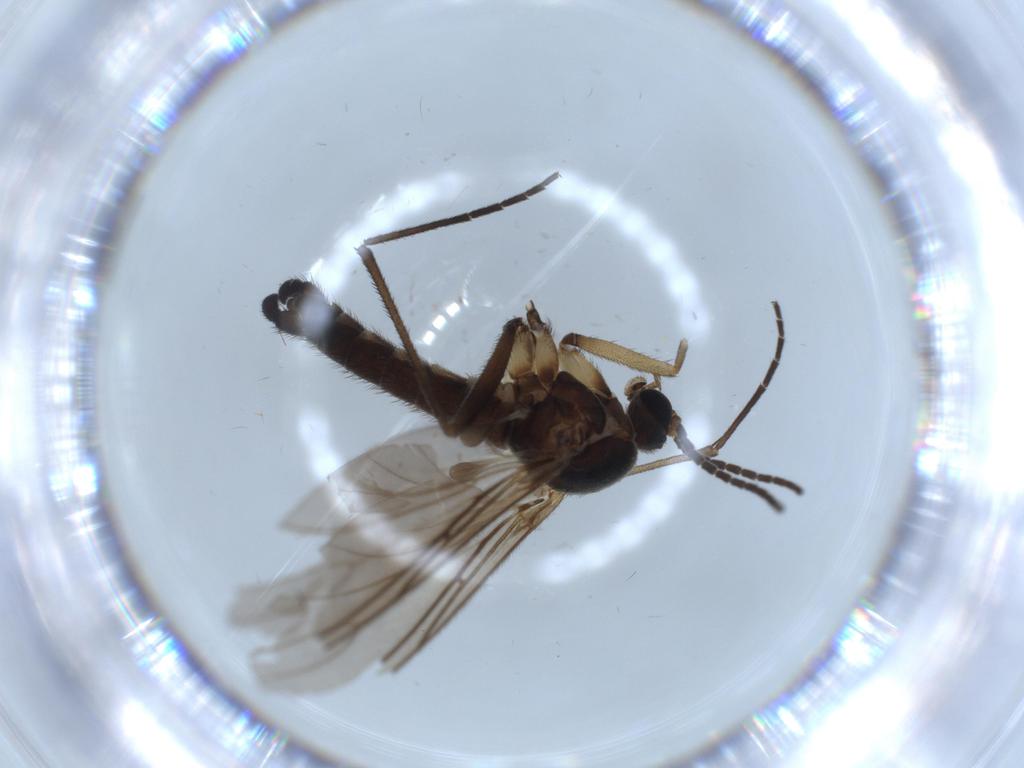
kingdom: Animalia
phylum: Arthropoda
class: Insecta
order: Diptera
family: Sciaridae
